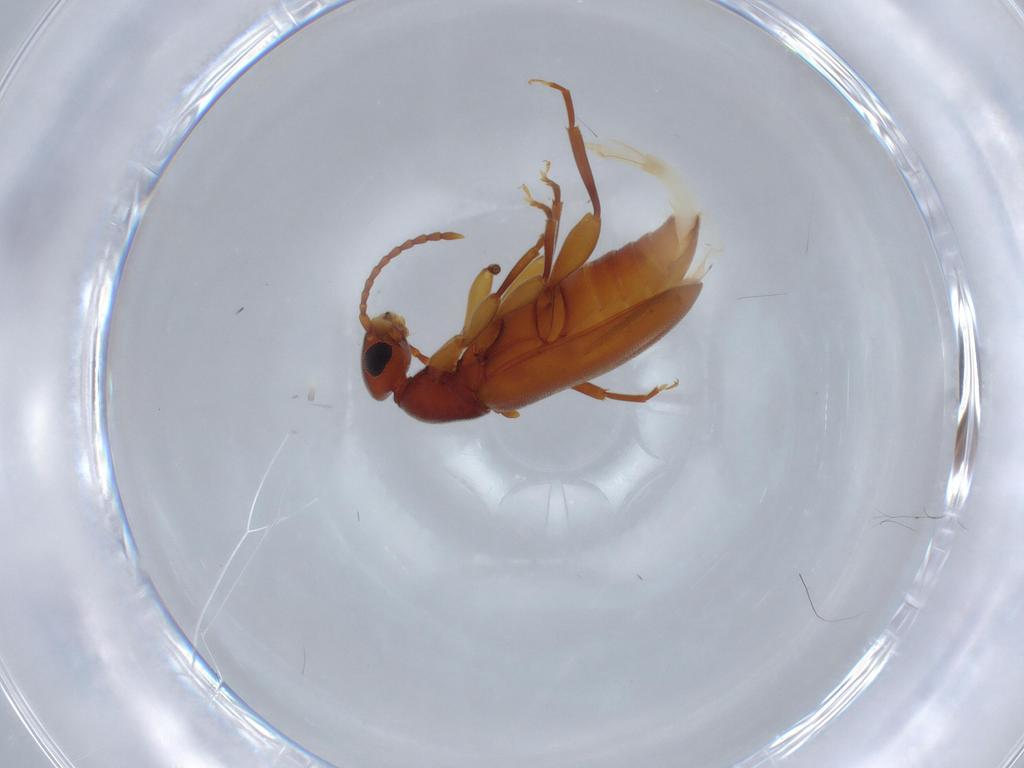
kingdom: Animalia
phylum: Arthropoda
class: Insecta
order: Coleoptera
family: Anthicidae
